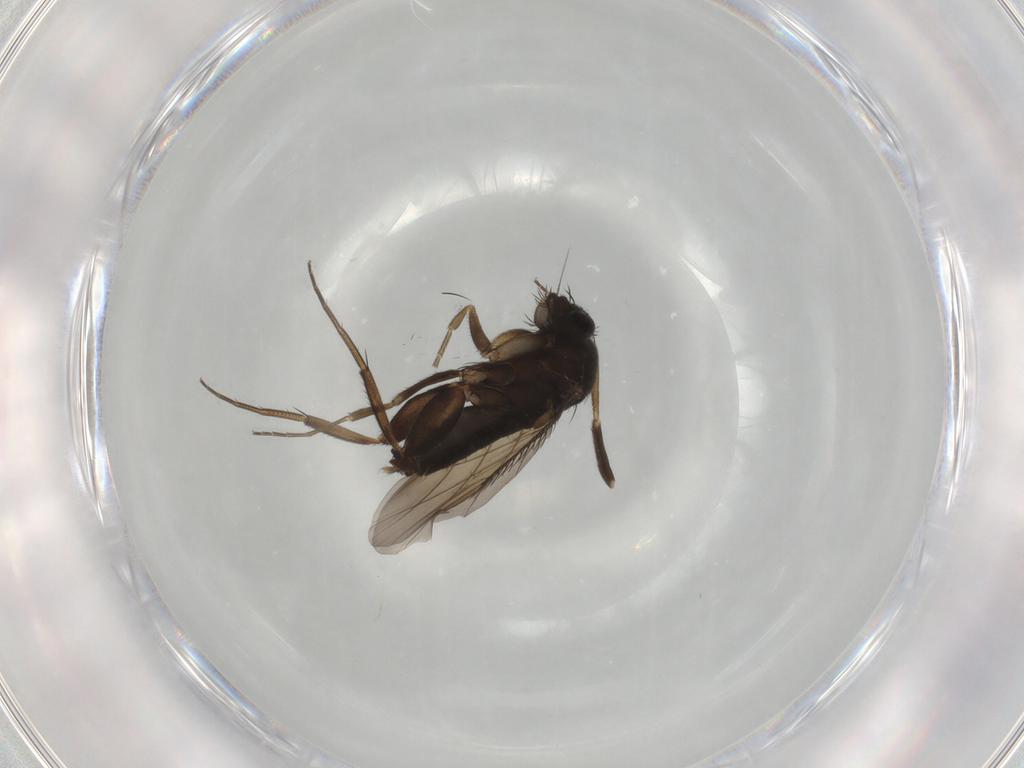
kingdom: Animalia
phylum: Arthropoda
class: Insecta
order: Diptera
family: Phoridae
